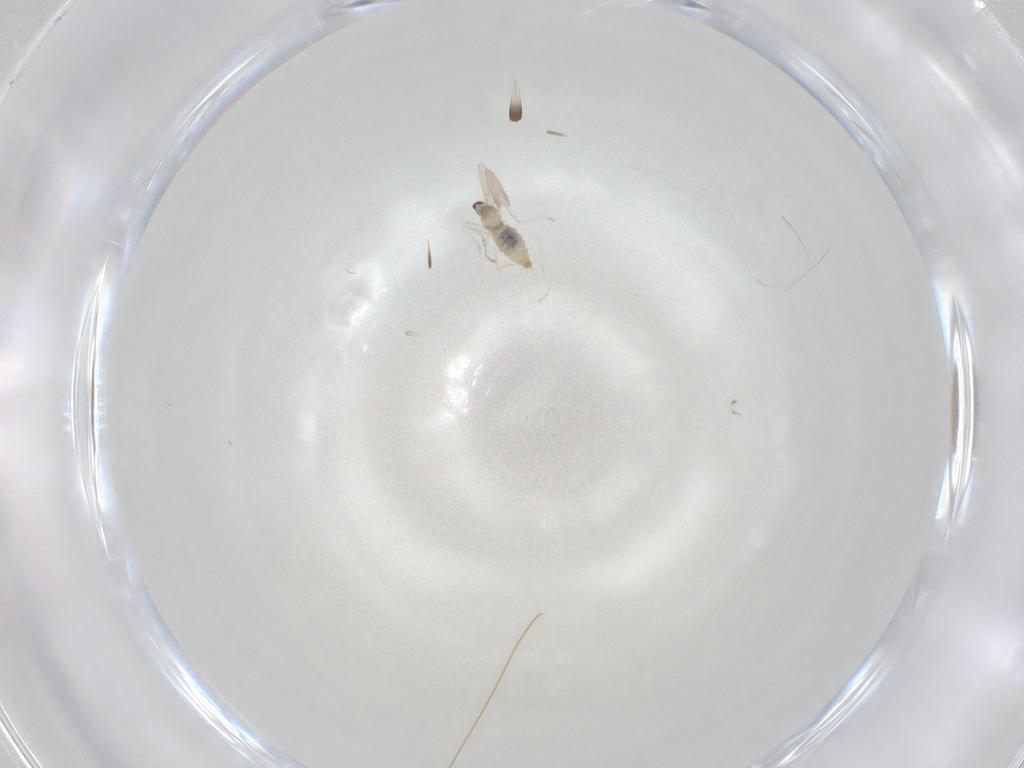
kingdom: Animalia
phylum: Arthropoda
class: Insecta
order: Diptera
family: Cecidomyiidae
